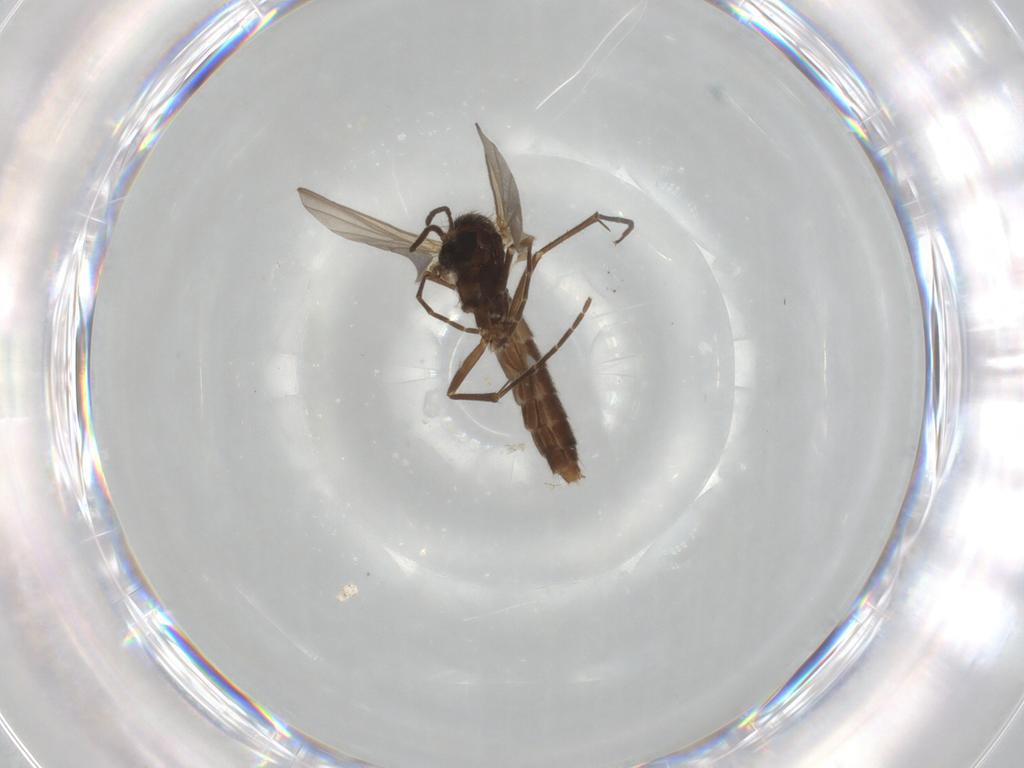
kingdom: Animalia
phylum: Arthropoda
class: Insecta
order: Diptera
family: Mycetophilidae
